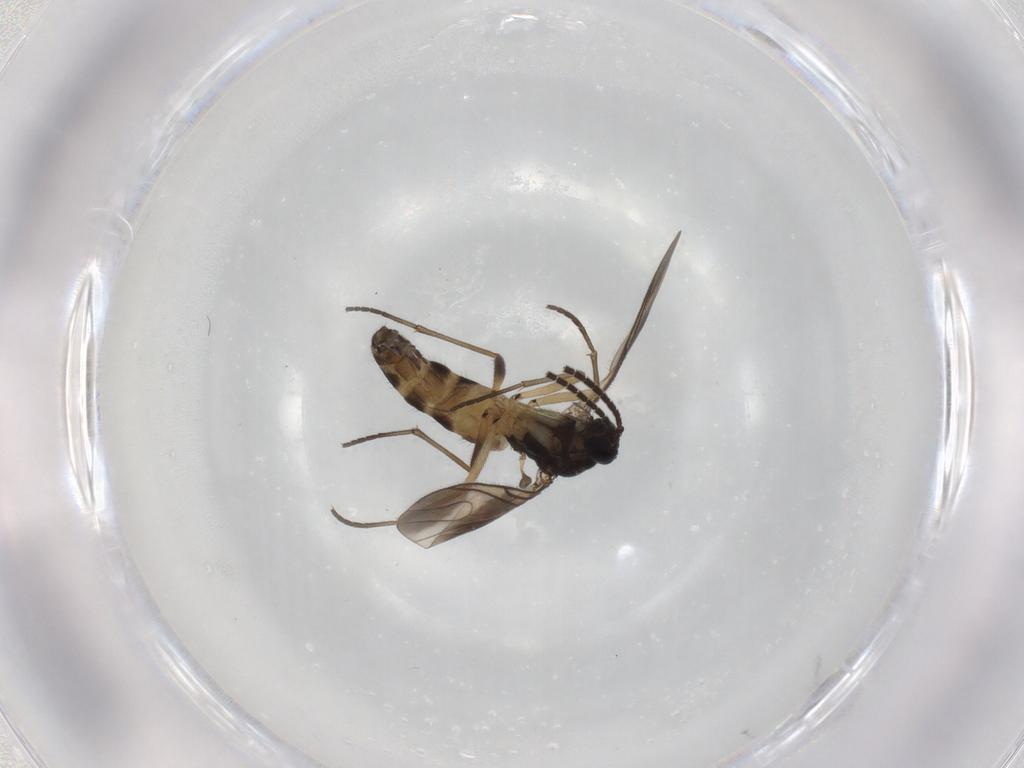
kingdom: Animalia
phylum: Arthropoda
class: Insecta
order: Diptera
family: Sciaridae
